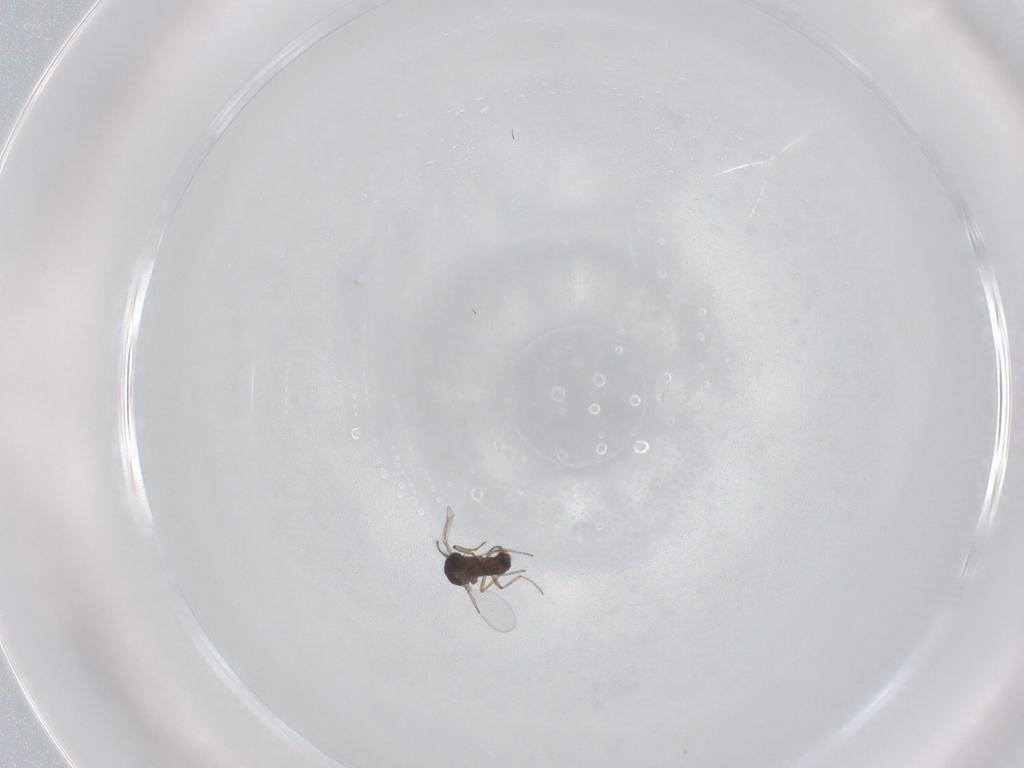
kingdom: Animalia
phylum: Arthropoda
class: Insecta
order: Diptera
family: Ceratopogonidae
